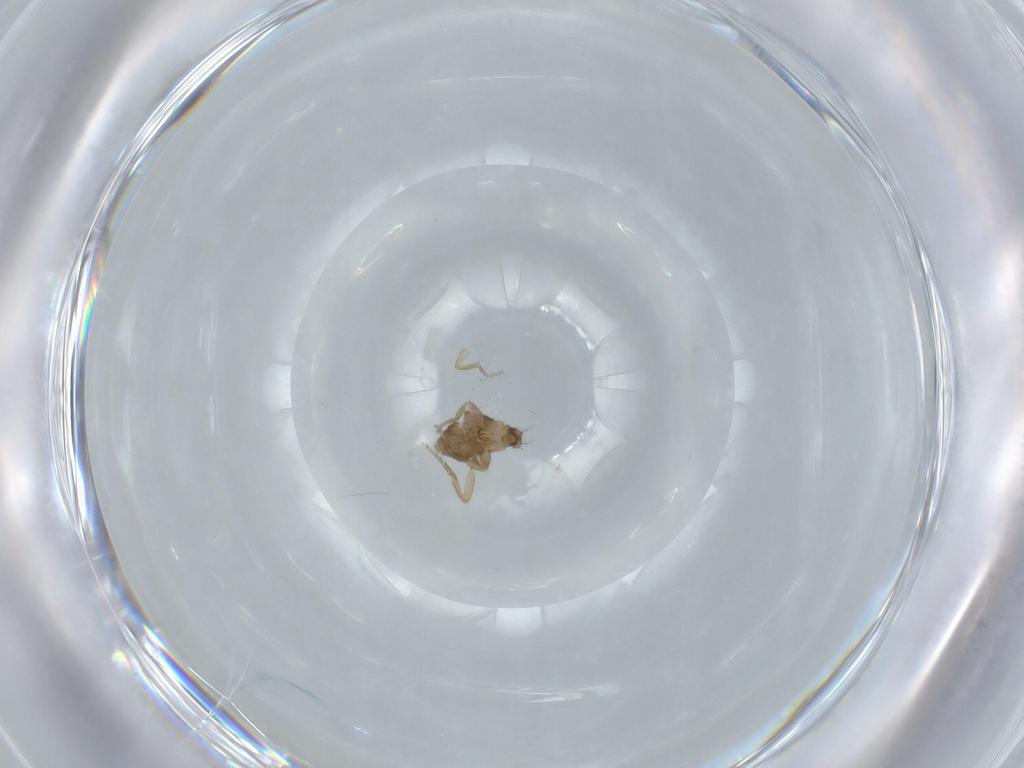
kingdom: Animalia
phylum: Arthropoda
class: Insecta
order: Diptera
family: Phoridae
